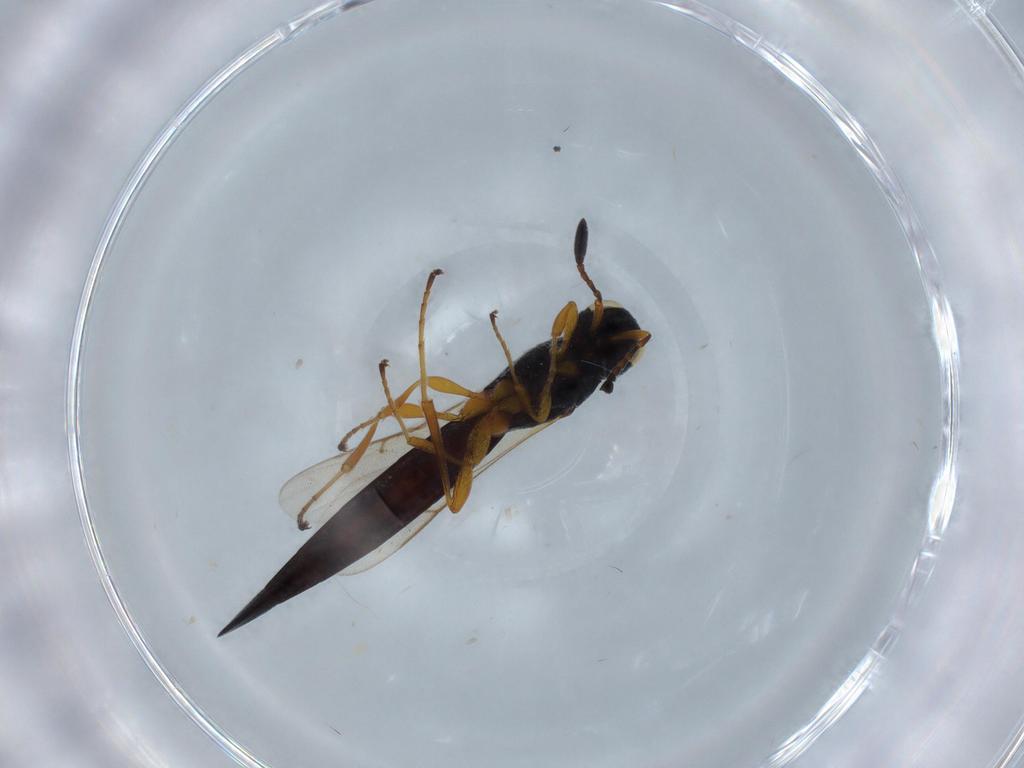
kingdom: Animalia
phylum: Arthropoda
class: Insecta
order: Hymenoptera
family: Scelionidae
